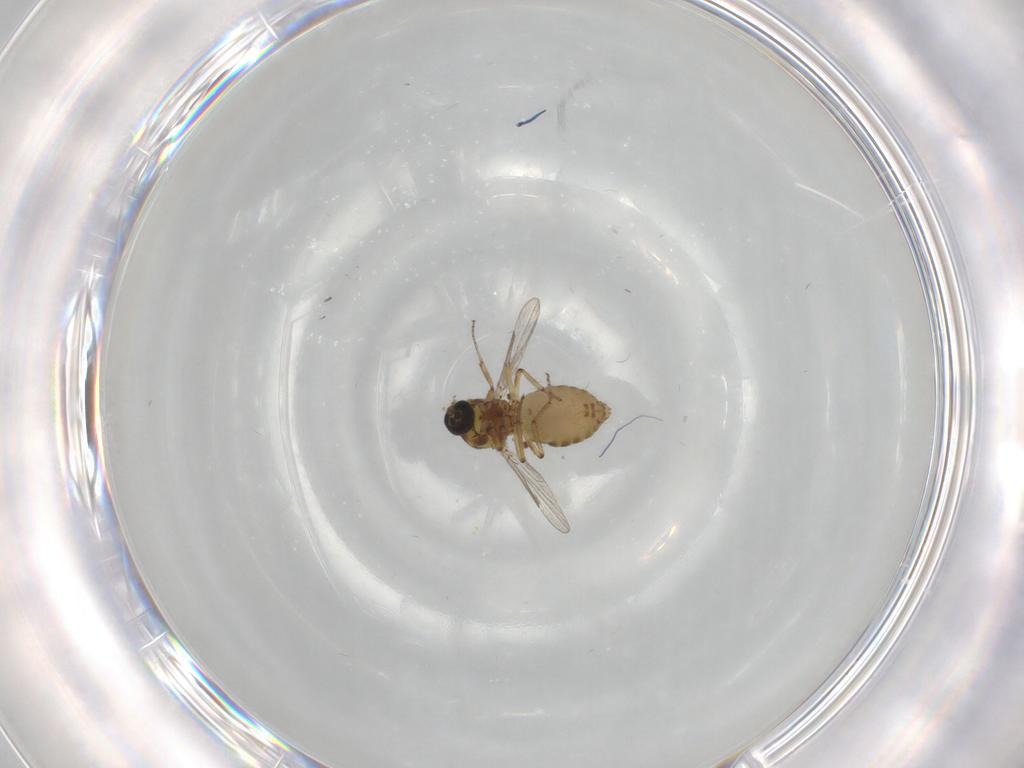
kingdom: Animalia
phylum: Arthropoda
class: Insecta
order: Diptera
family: Ceratopogonidae
